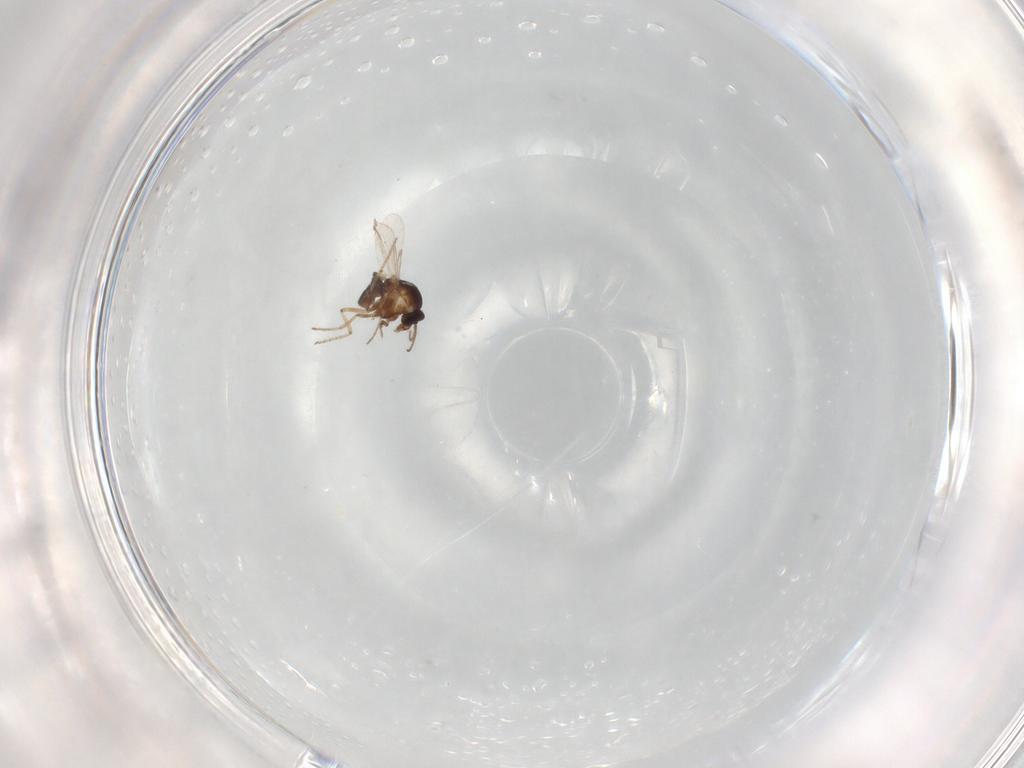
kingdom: Animalia
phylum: Arthropoda
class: Insecta
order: Diptera
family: Ceratopogonidae
